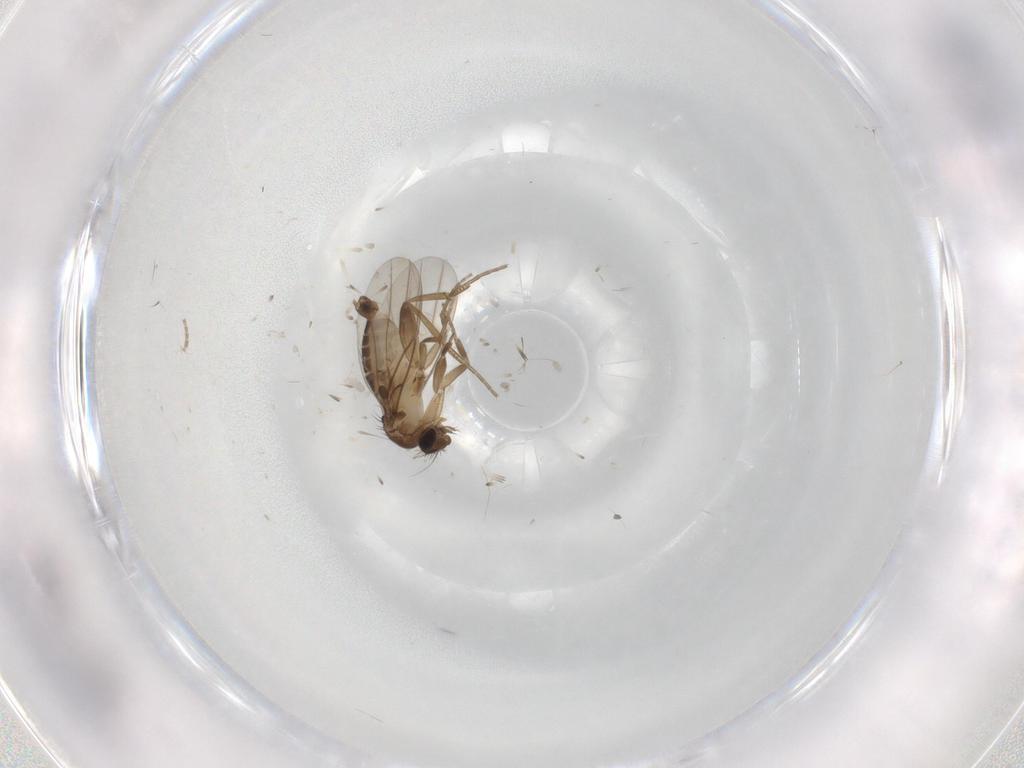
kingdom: Animalia
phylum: Arthropoda
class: Insecta
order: Diptera
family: Phoridae
